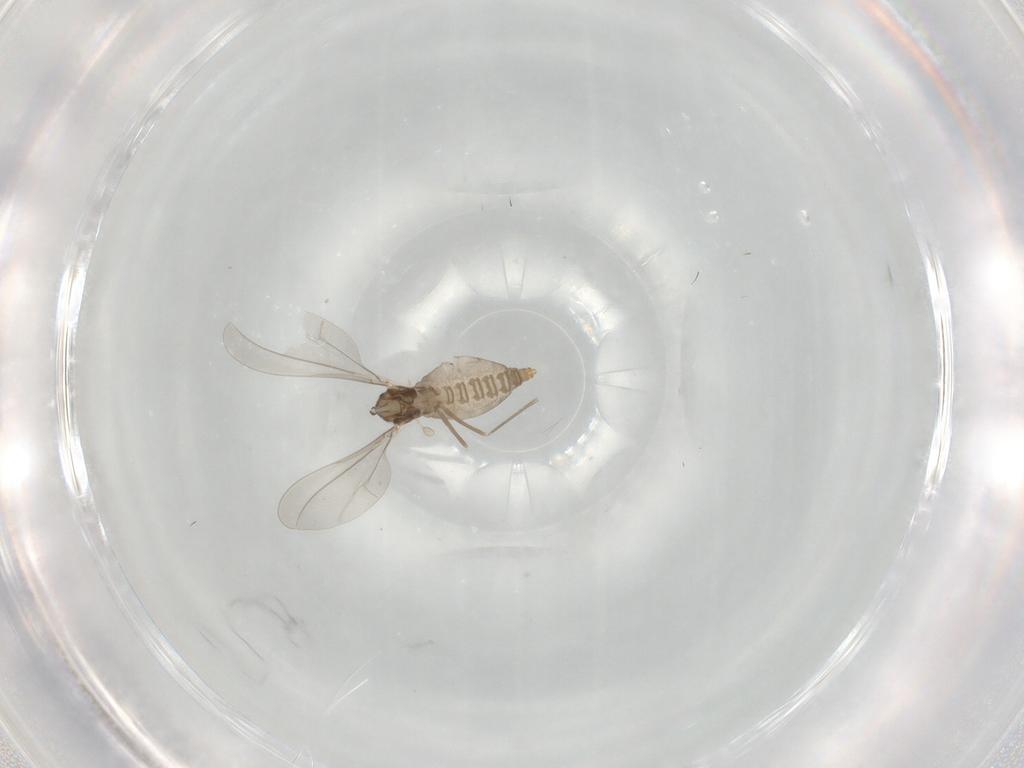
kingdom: Animalia
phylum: Arthropoda
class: Insecta
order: Diptera
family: Cecidomyiidae
